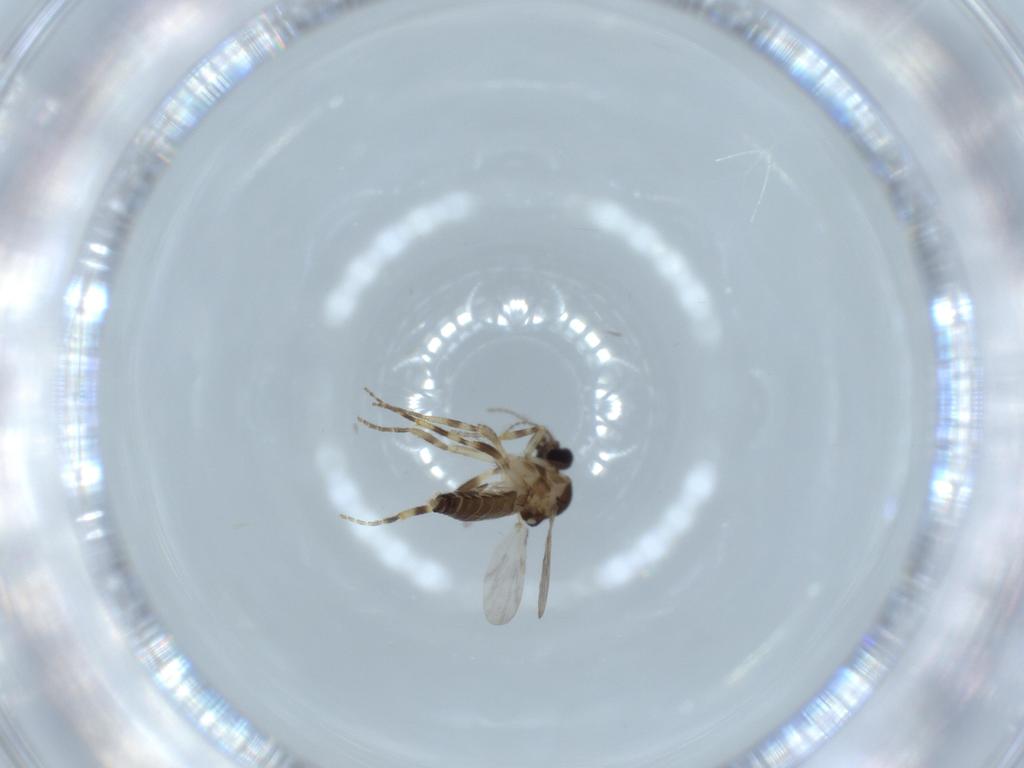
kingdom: Animalia
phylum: Arthropoda
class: Insecta
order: Diptera
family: Ceratopogonidae
